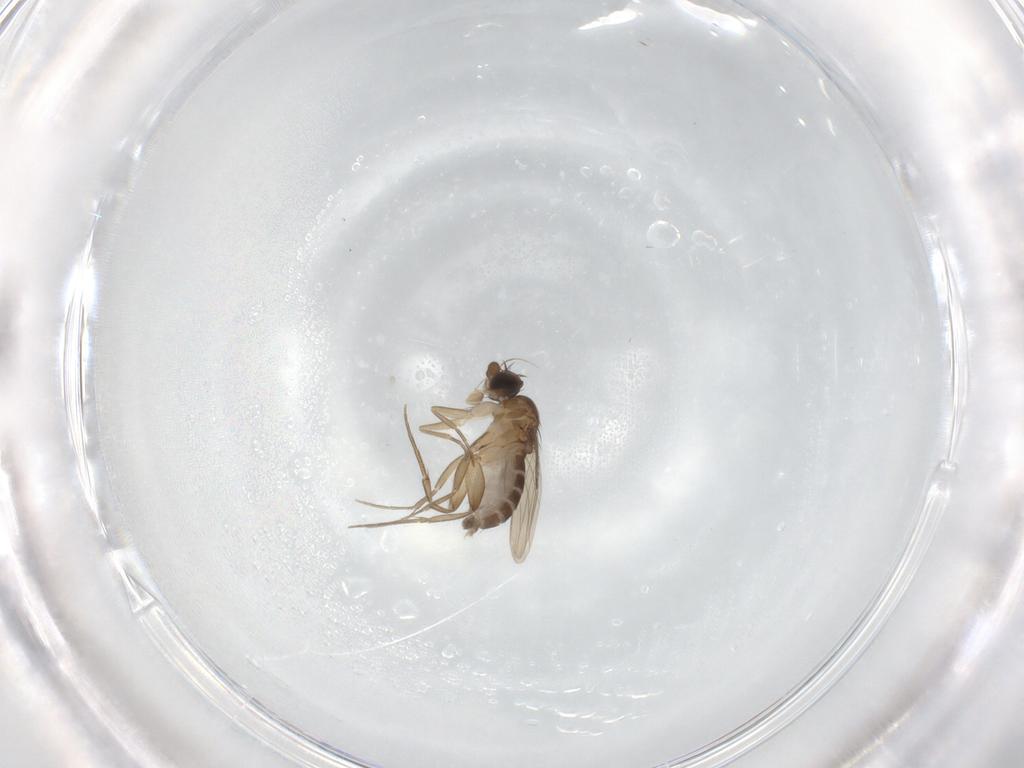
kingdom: Animalia
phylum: Arthropoda
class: Insecta
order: Diptera
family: Phoridae
